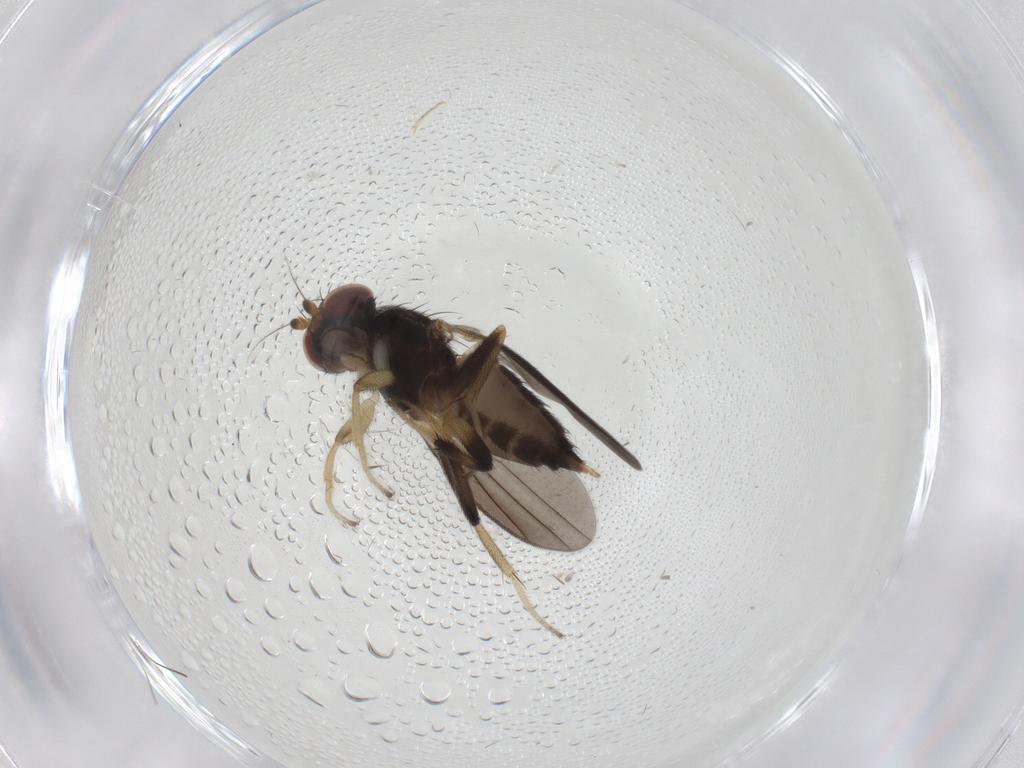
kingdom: Animalia
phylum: Arthropoda
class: Insecta
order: Diptera
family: Clusiidae
